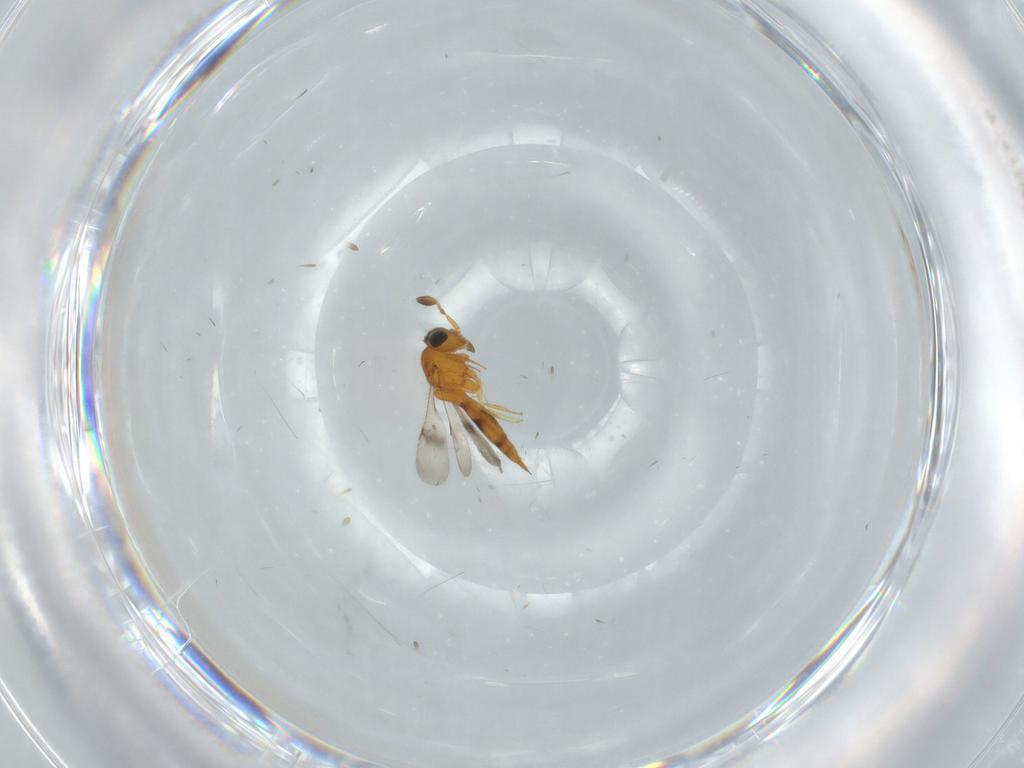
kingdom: Animalia
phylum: Arthropoda
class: Insecta
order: Hymenoptera
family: Scelionidae
